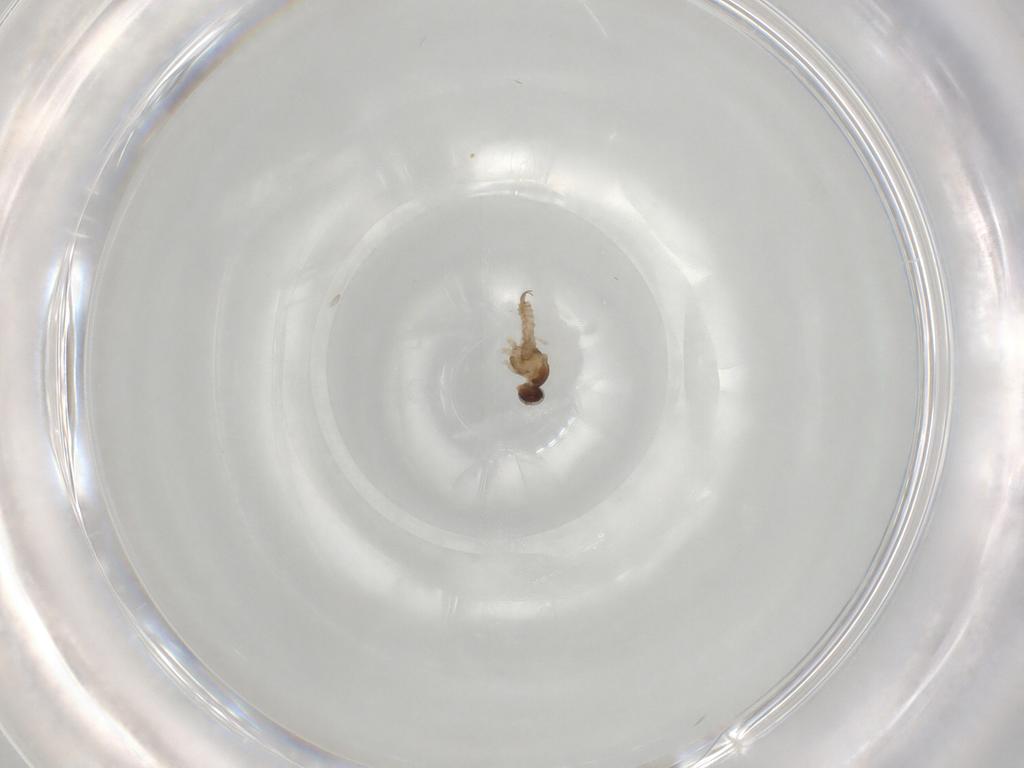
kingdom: Animalia
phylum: Arthropoda
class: Insecta
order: Diptera
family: Cecidomyiidae
